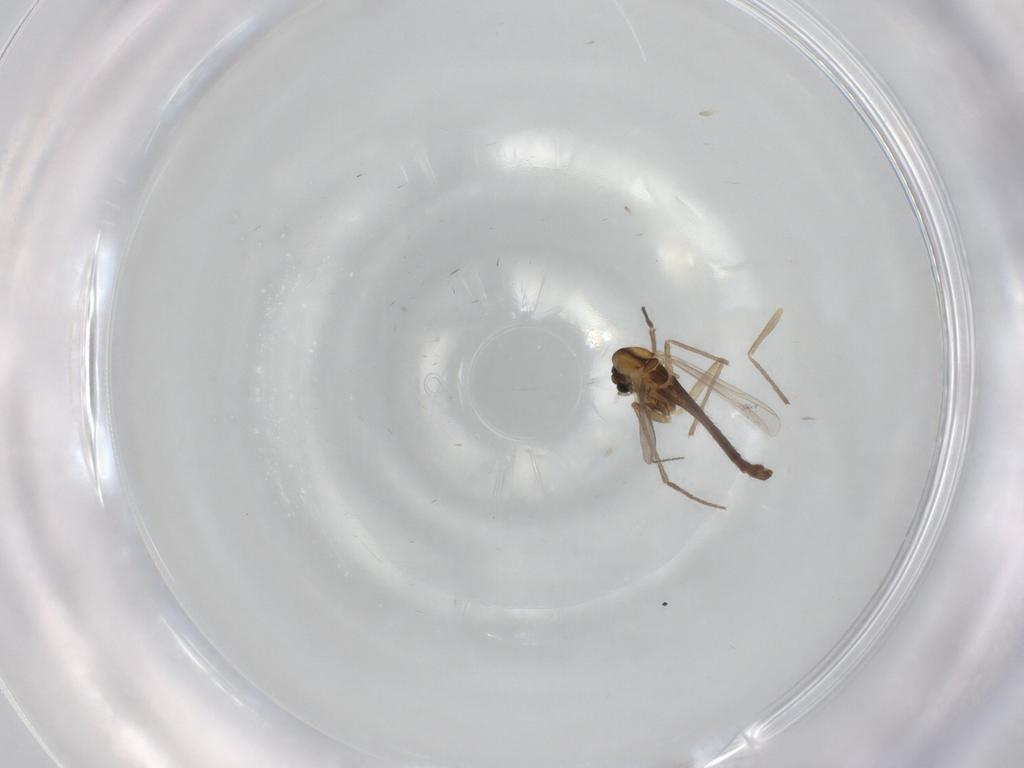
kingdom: Animalia
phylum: Arthropoda
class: Insecta
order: Diptera
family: Chironomidae
